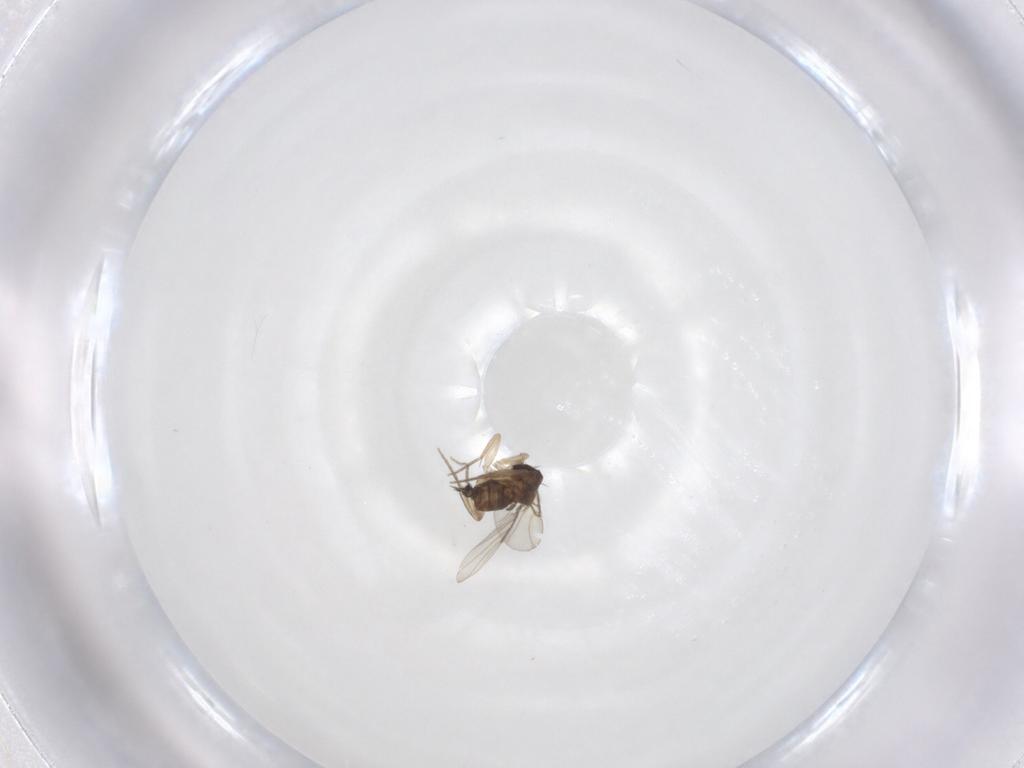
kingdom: Animalia
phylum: Arthropoda
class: Insecta
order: Diptera
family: Phoridae
